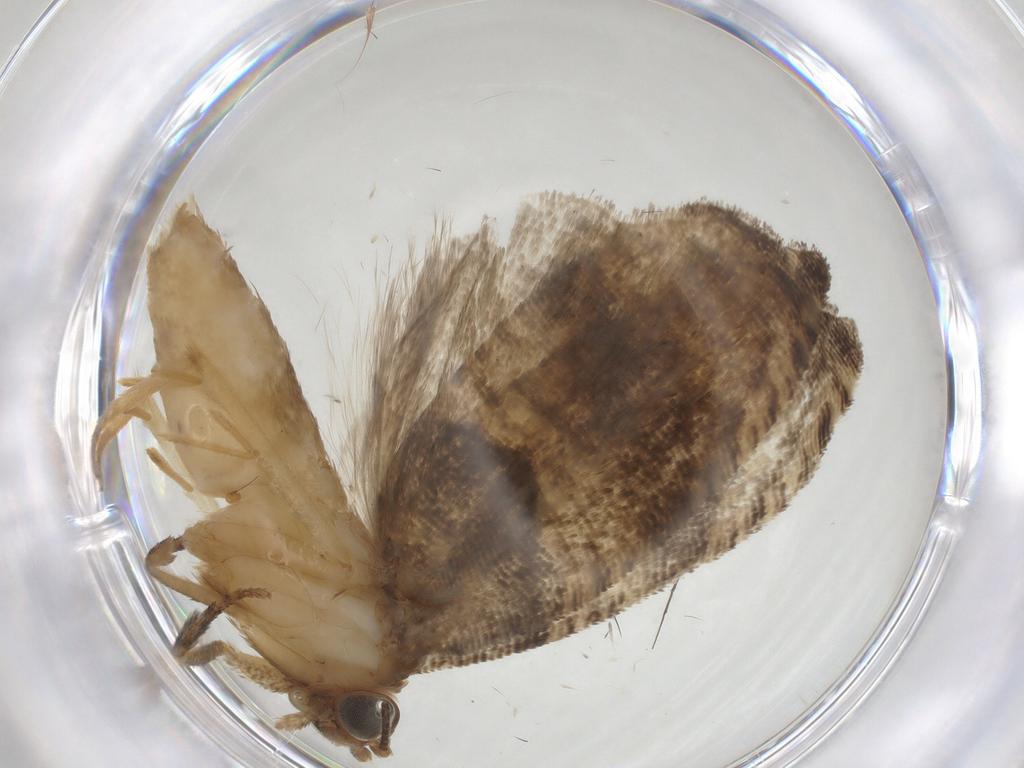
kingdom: Animalia
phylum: Arthropoda
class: Insecta
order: Lepidoptera
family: Tortricidae
